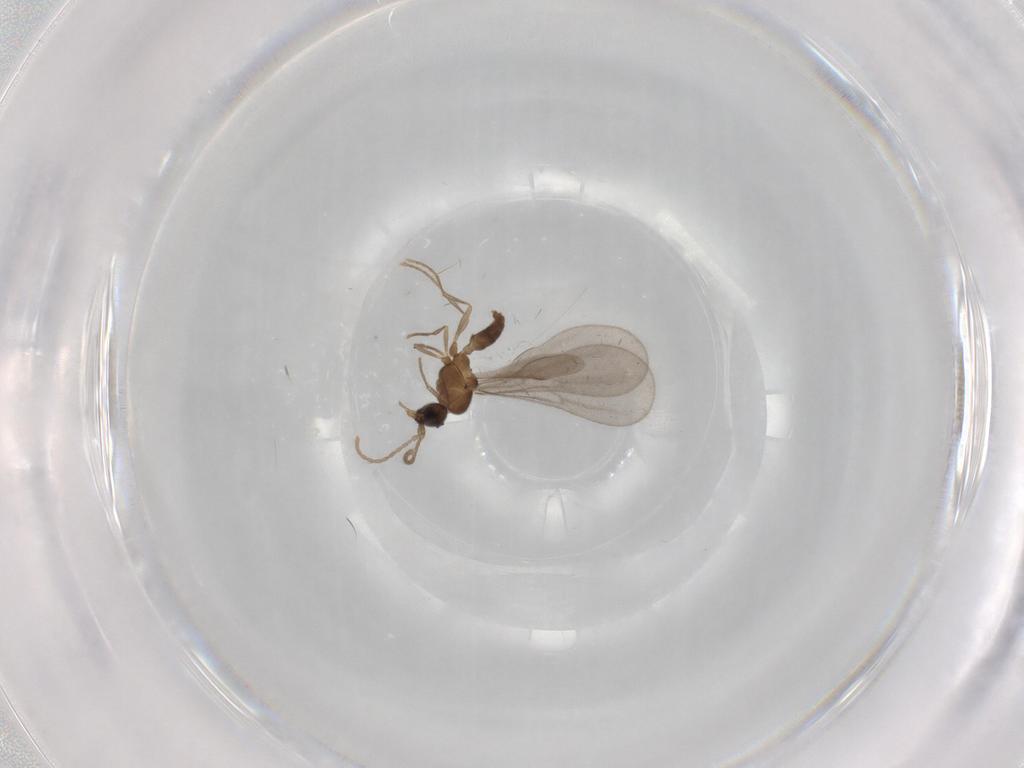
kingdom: Animalia
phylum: Arthropoda
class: Insecta
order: Hymenoptera
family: Formicidae
